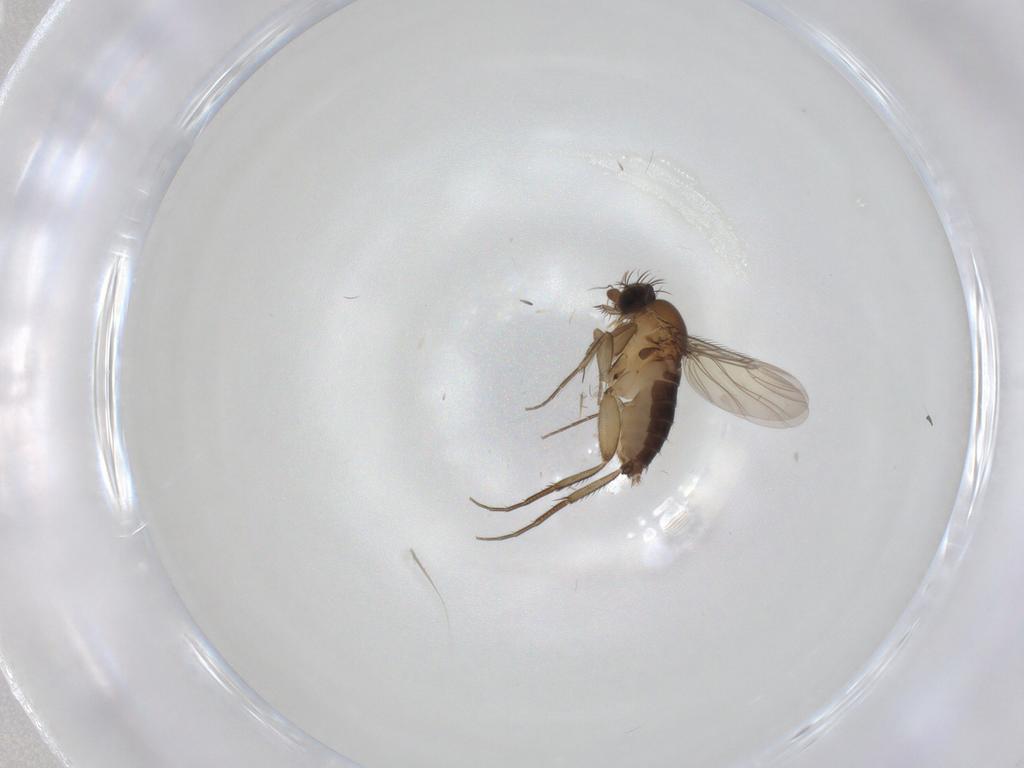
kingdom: Animalia
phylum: Arthropoda
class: Insecta
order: Diptera
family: Phoridae
